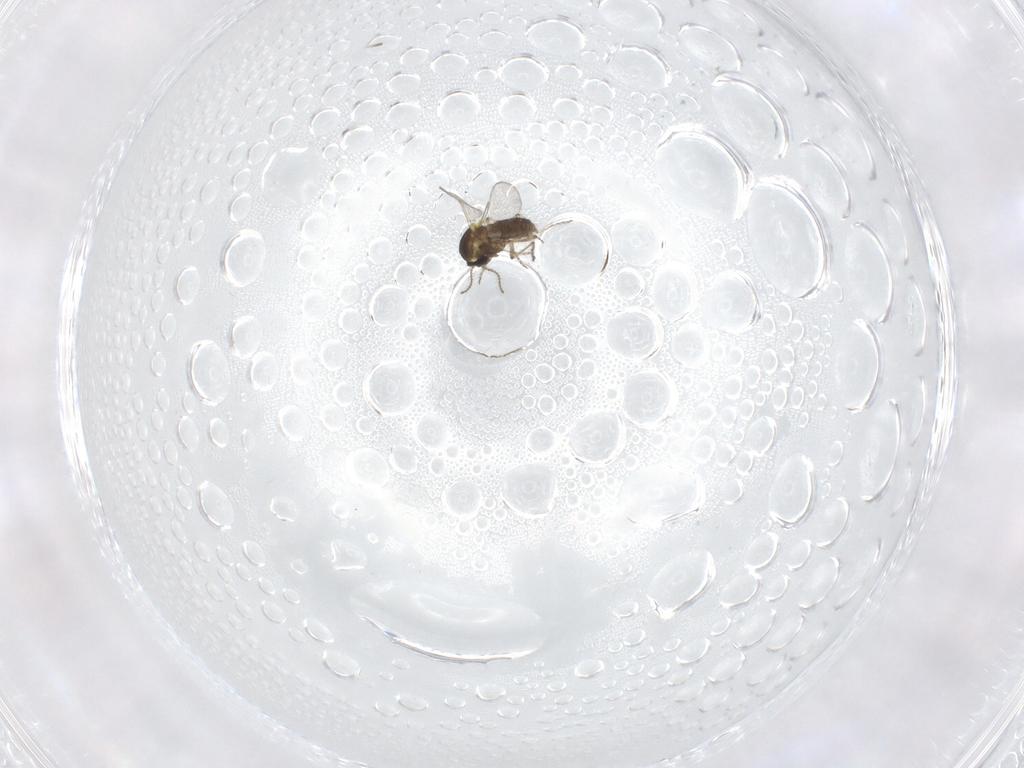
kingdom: Animalia
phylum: Arthropoda
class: Insecta
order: Diptera
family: Ceratopogonidae
